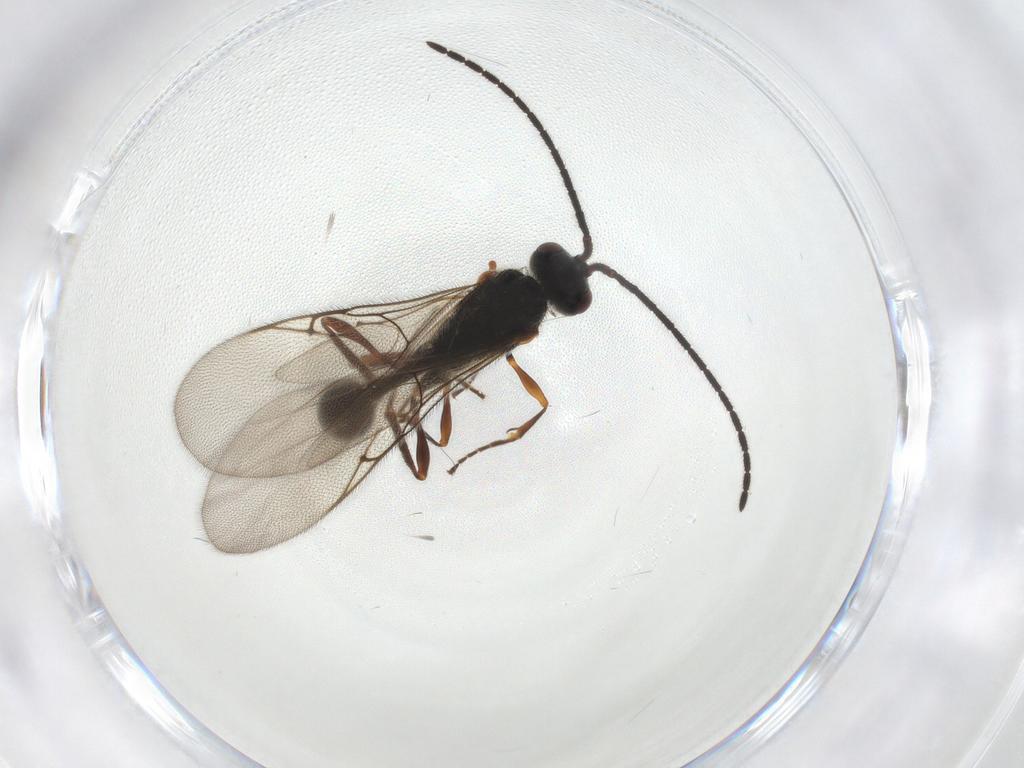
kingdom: Animalia
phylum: Arthropoda
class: Insecta
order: Hymenoptera
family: Diapriidae
